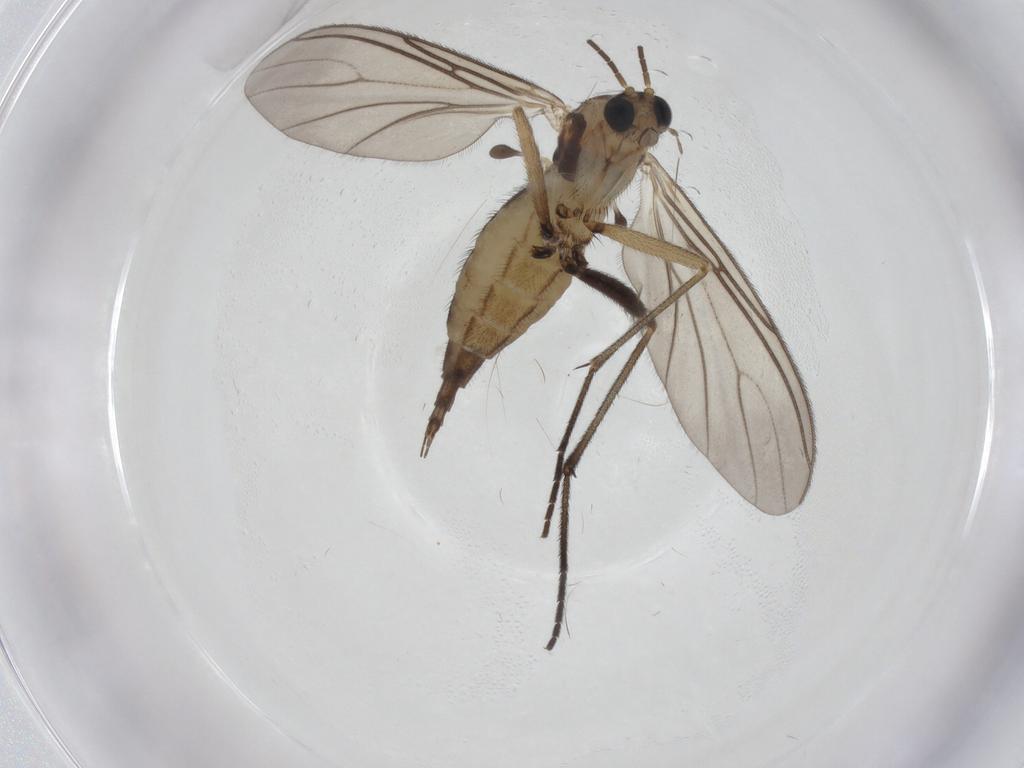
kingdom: Animalia
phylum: Arthropoda
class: Insecta
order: Diptera
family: Sciaridae
